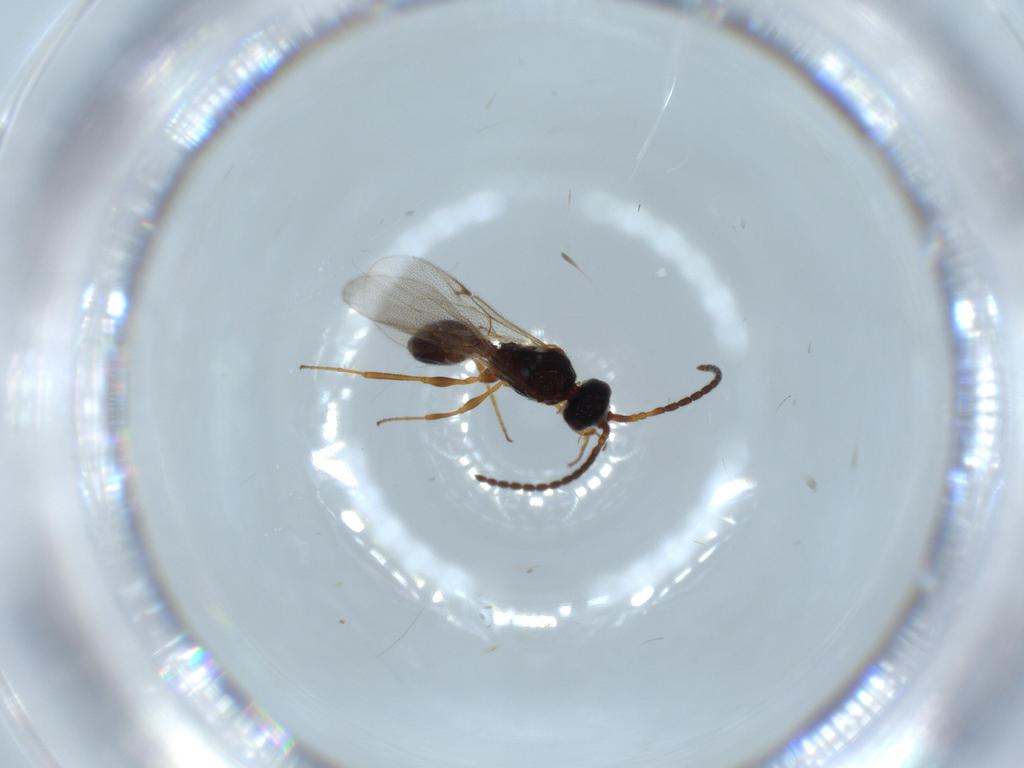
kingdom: Animalia
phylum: Arthropoda
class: Insecta
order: Hymenoptera
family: Diapriidae
